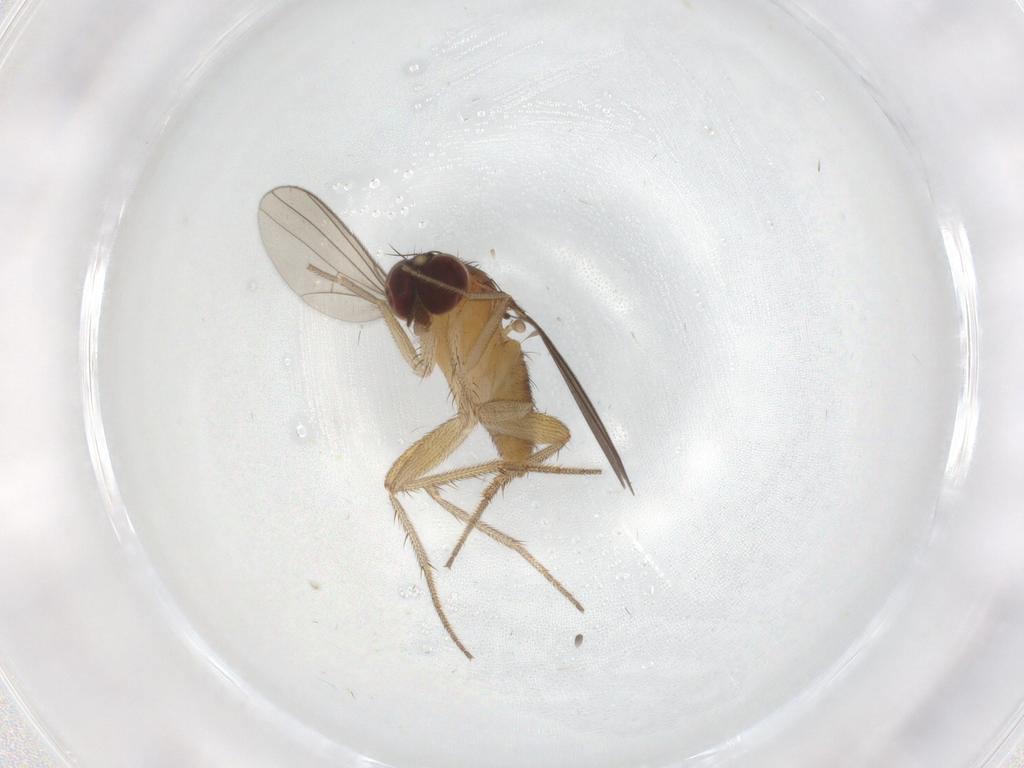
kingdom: Animalia
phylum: Arthropoda
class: Insecta
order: Diptera
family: Dolichopodidae
